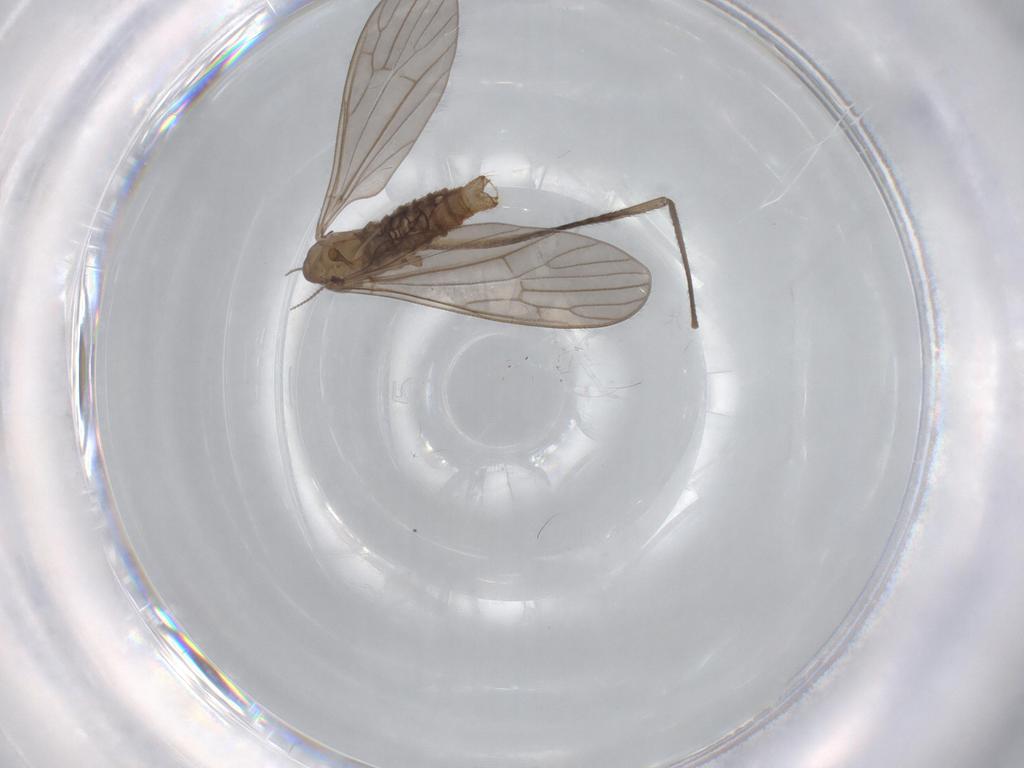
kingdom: Animalia
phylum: Arthropoda
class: Insecta
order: Diptera
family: Limoniidae
